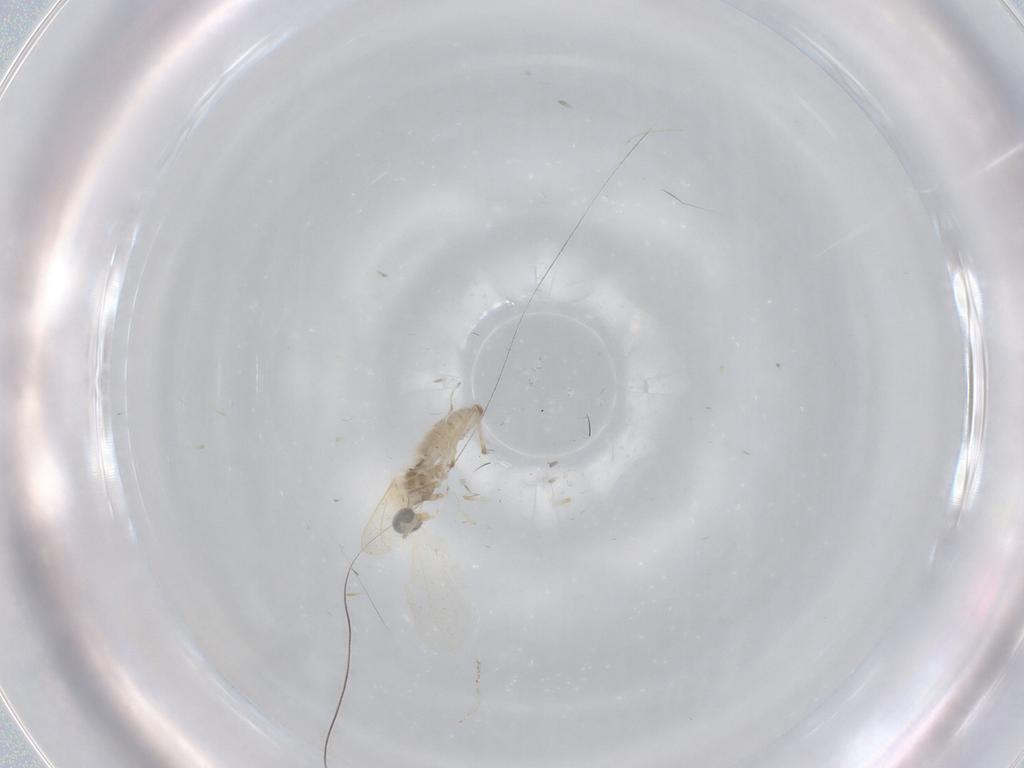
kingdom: Animalia
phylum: Arthropoda
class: Insecta
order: Diptera
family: Cecidomyiidae
